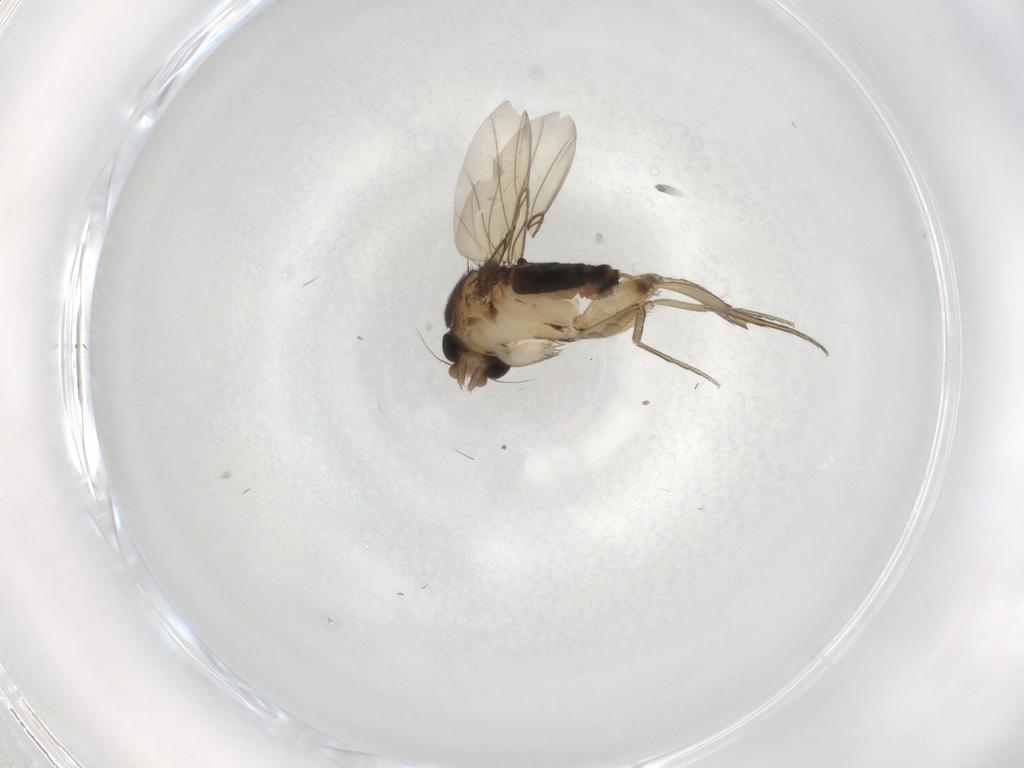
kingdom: Animalia
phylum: Arthropoda
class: Insecta
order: Diptera
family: Phoridae
